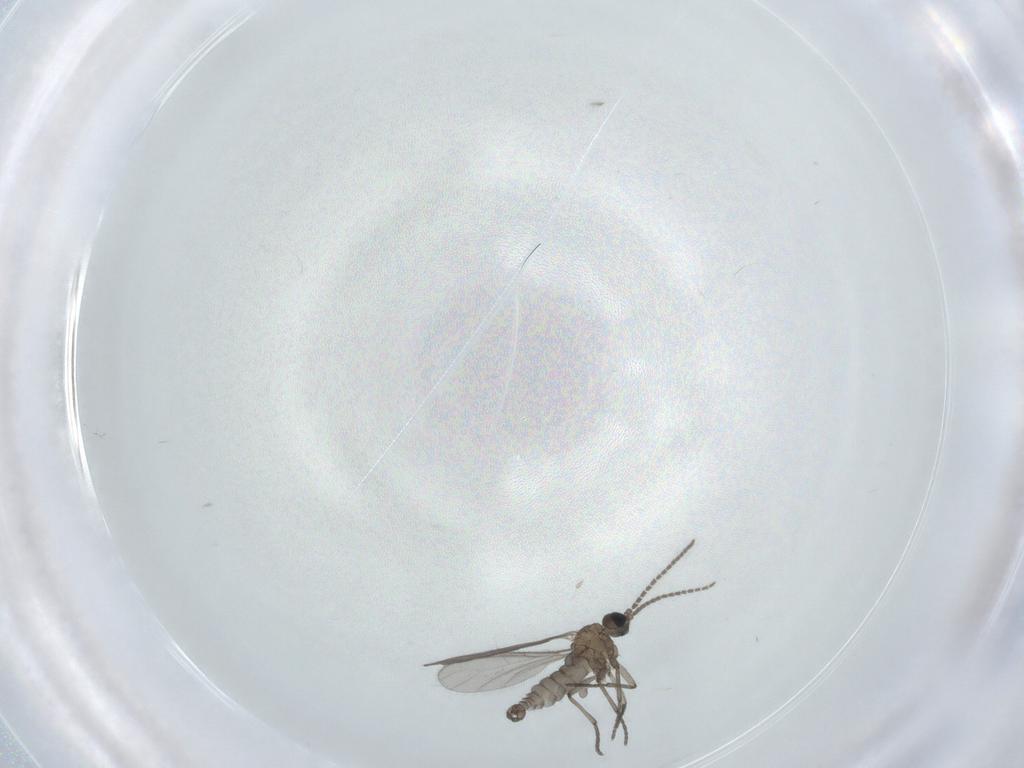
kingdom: Animalia
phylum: Arthropoda
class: Insecta
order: Diptera
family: Sciaridae
